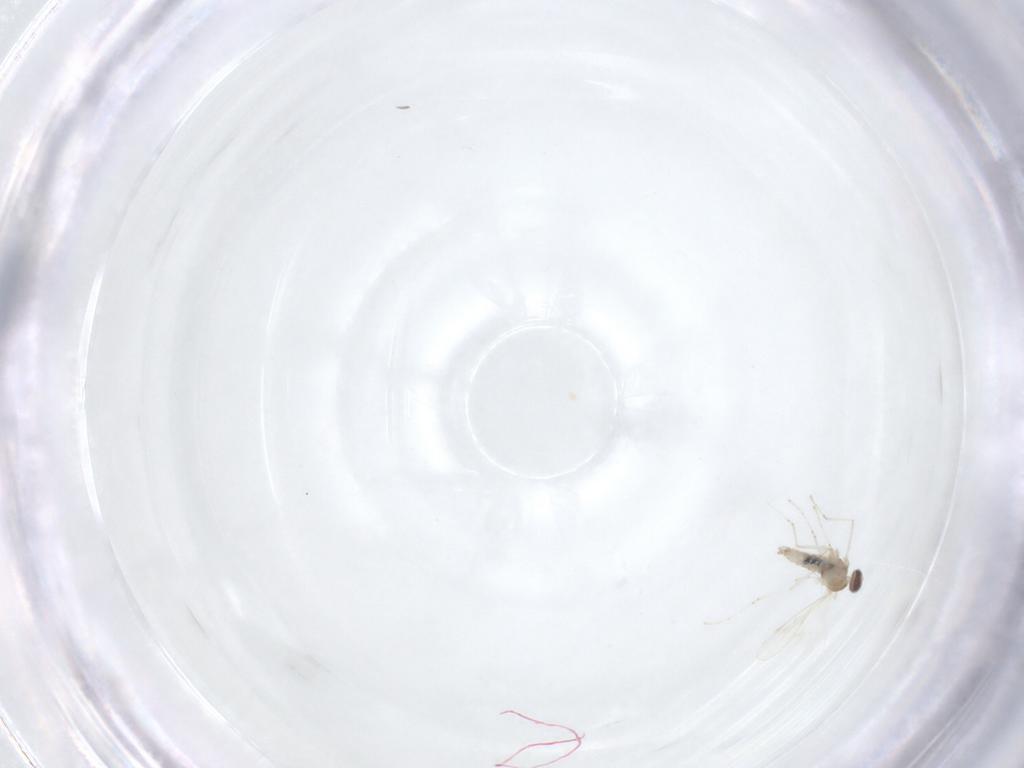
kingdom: Animalia
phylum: Arthropoda
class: Insecta
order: Diptera
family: Cecidomyiidae
